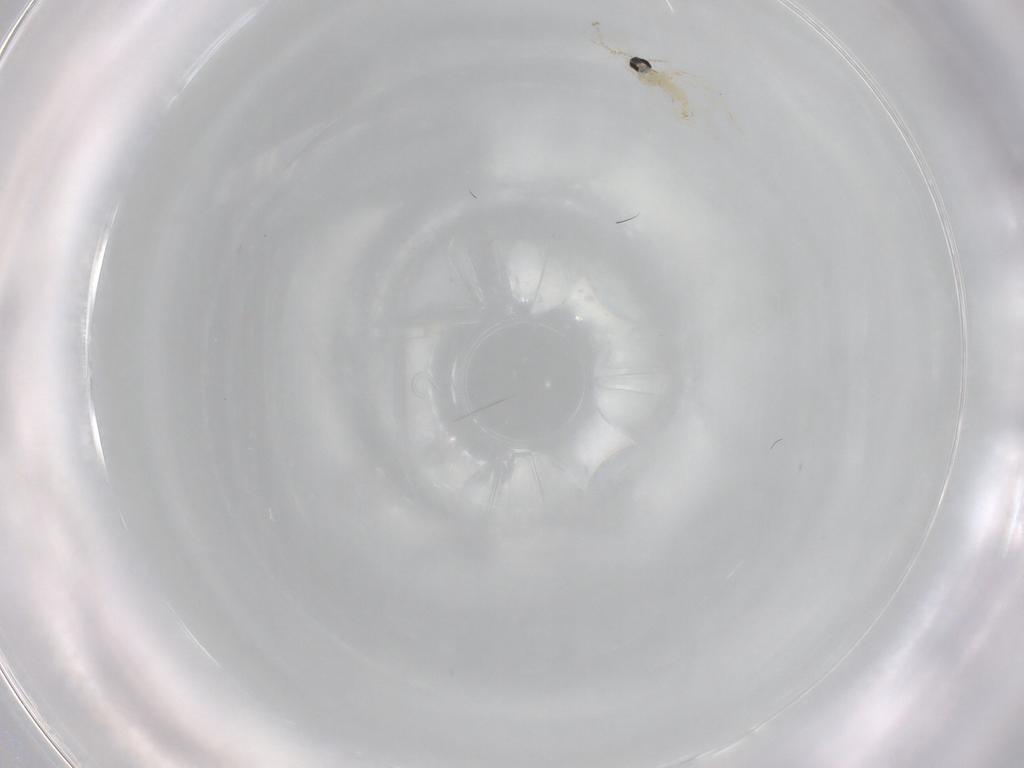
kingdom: Animalia
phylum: Arthropoda
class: Insecta
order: Diptera
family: Cecidomyiidae
